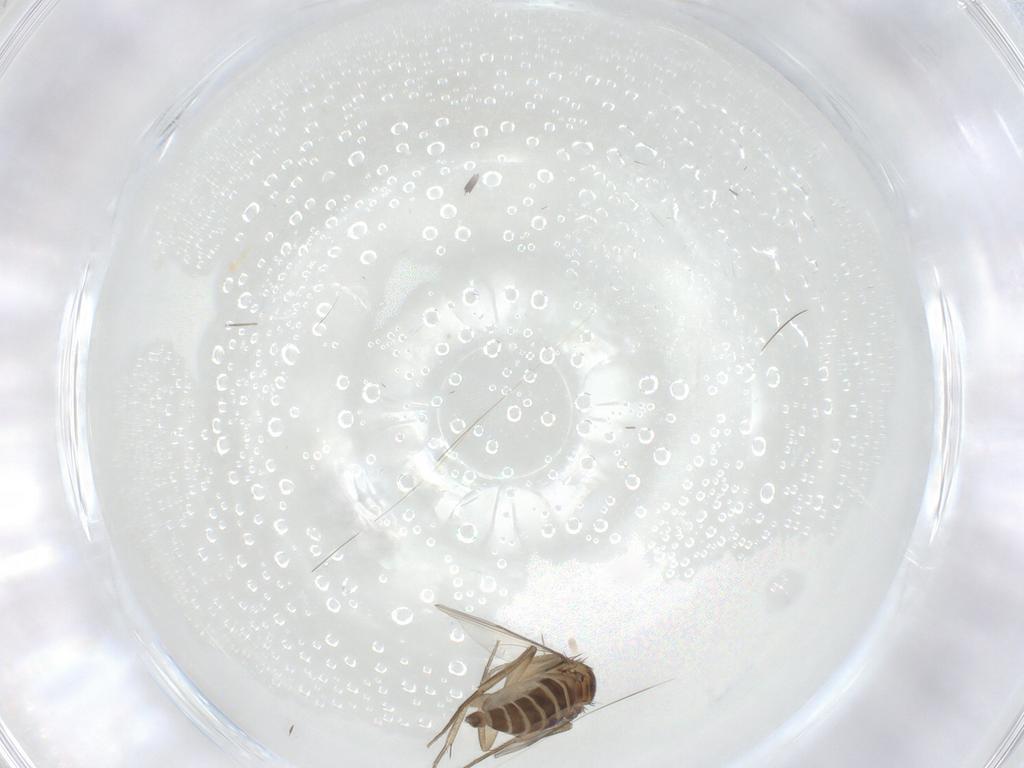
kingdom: Animalia
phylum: Arthropoda
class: Insecta
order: Diptera
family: Phoridae
